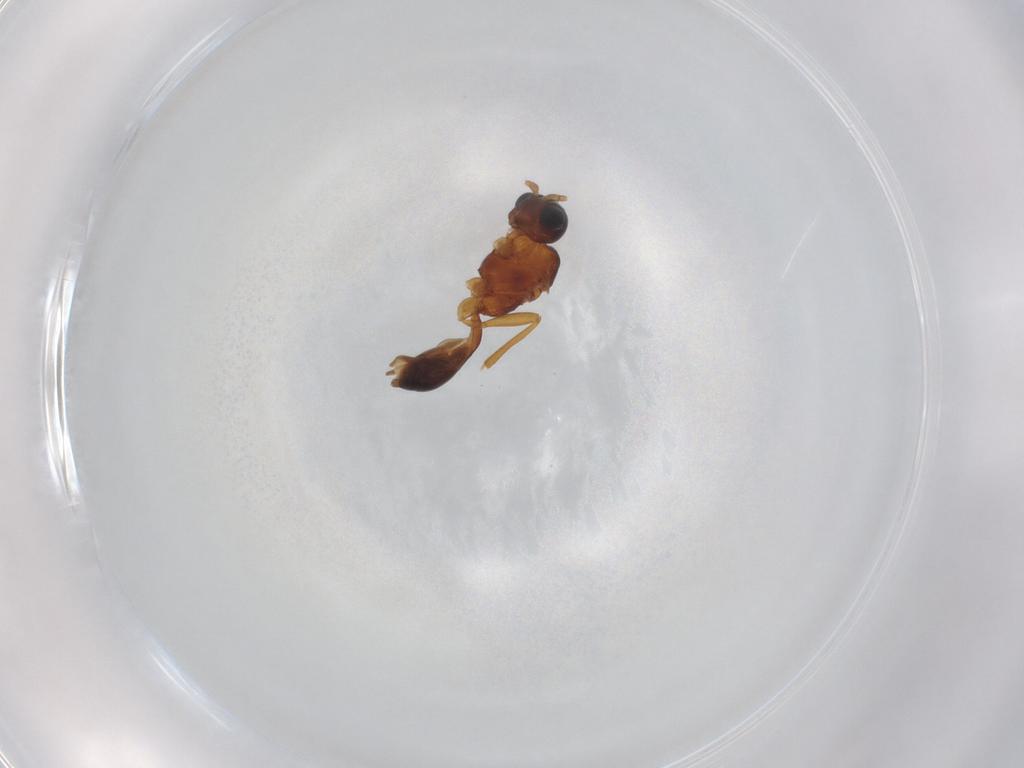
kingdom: Animalia
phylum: Arthropoda
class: Insecta
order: Hymenoptera
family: Braconidae
